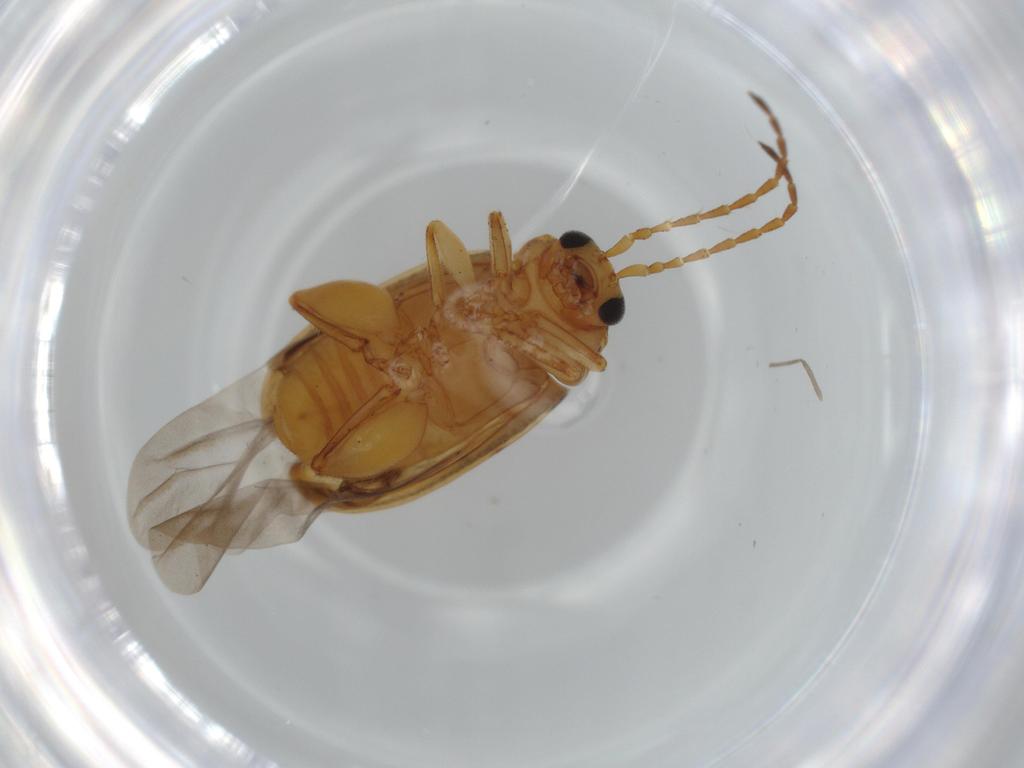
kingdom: Animalia
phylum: Arthropoda
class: Insecta
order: Coleoptera
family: Chrysomelidae
